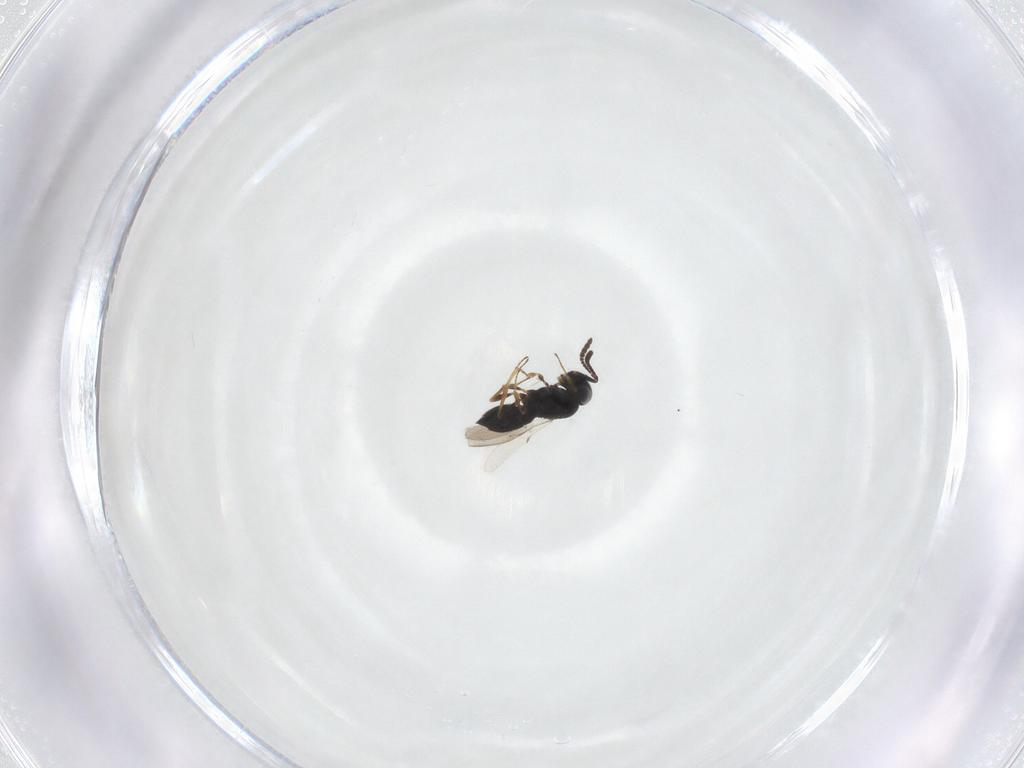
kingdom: Animalia
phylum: Arthropoda
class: Insecta
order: Hymenoptera
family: Scelionidae
